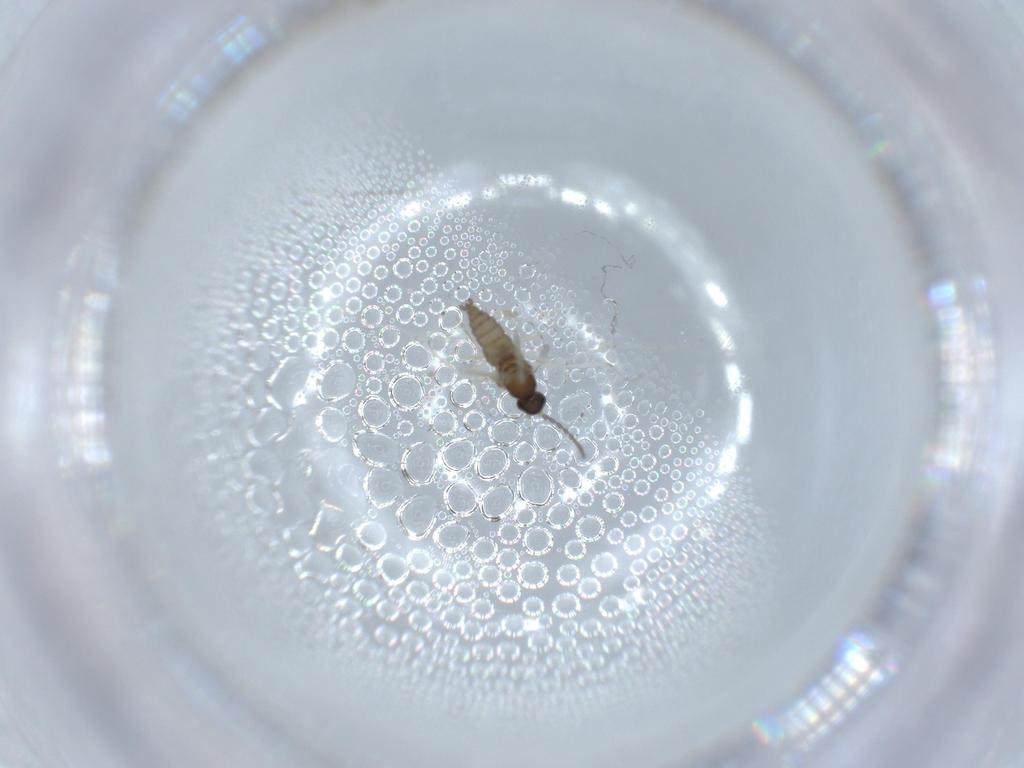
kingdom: Animalia
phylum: Arthropoda
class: Insecta
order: Diptera
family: Cecidomyiidae
